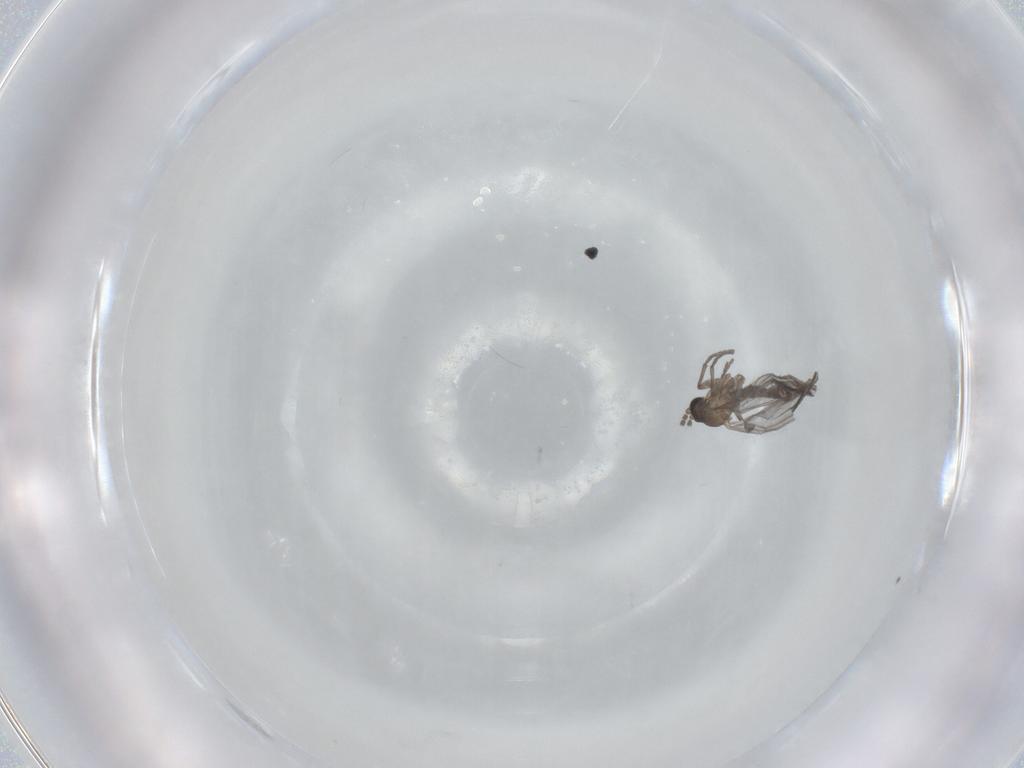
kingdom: Animalia
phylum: Arthropoda
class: Insecta
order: Diptera
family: Sciaridae
